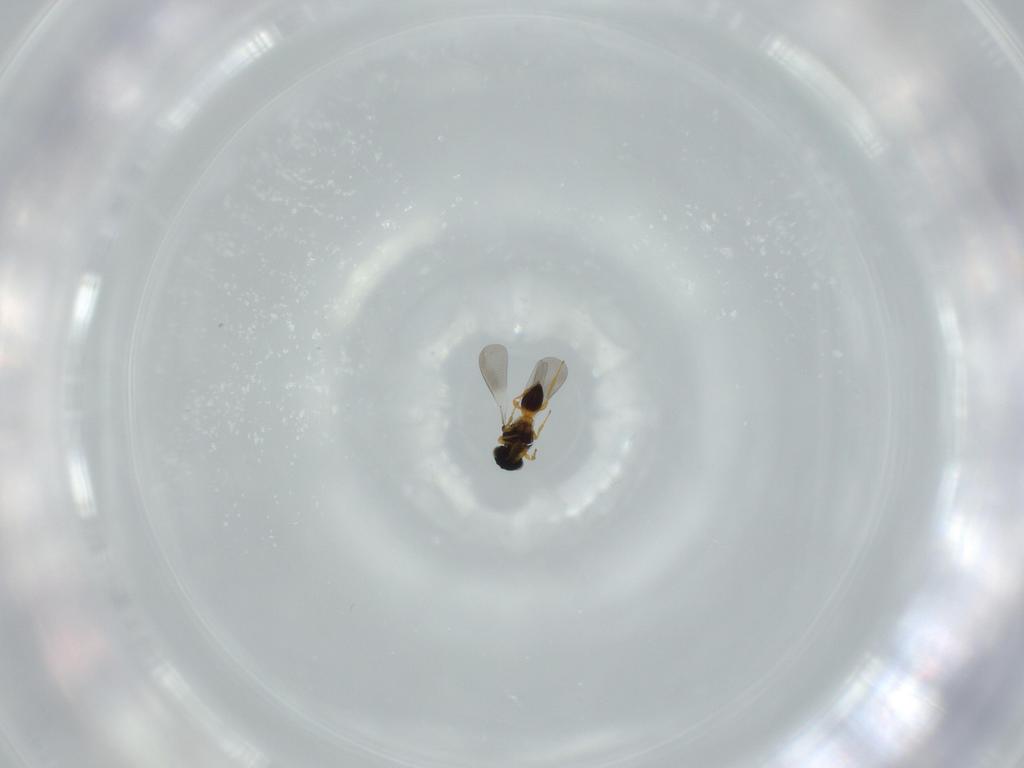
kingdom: Animalia
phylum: Arthropoda
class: Insecta
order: Hymenoptera
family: Platygastridae
